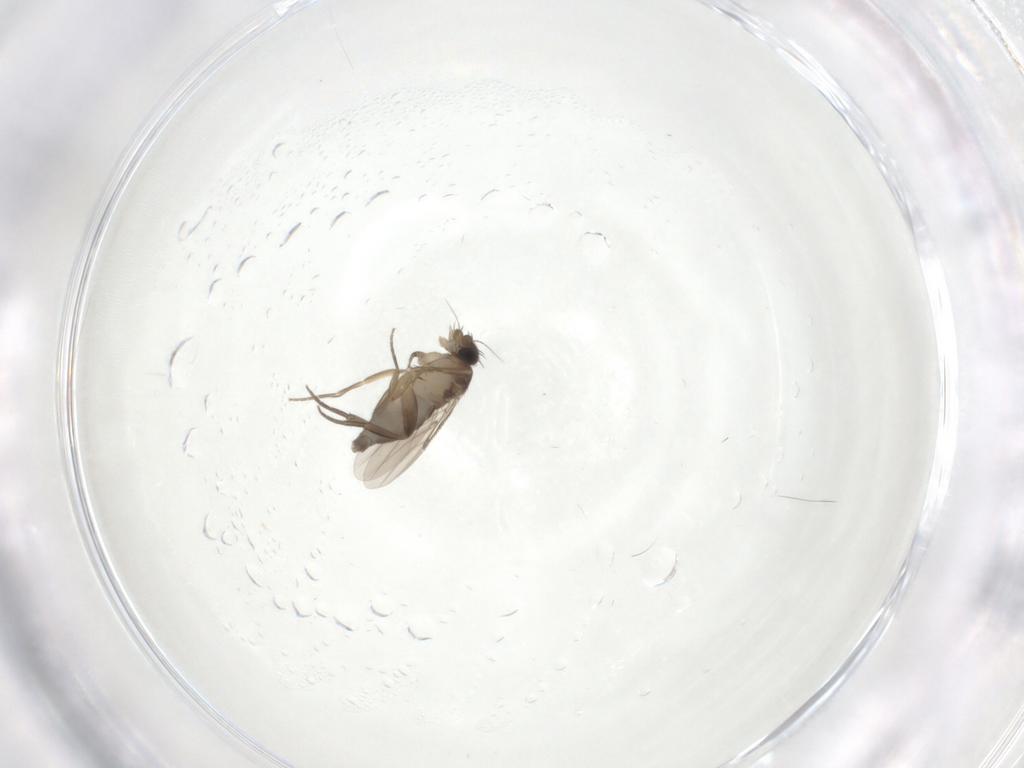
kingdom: Animalia
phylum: Arthropoda
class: Insecta
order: Diptera
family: Phoridae
